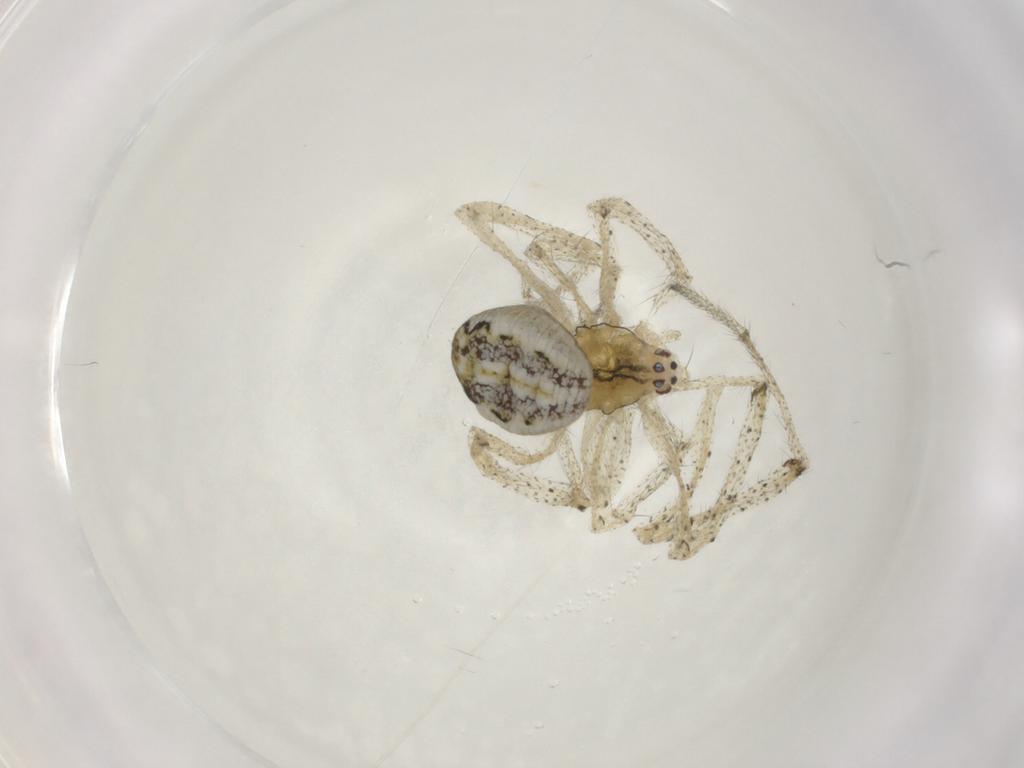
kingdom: Animalia
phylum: Arthropoda
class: Arachnida
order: Araneae
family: Theridiidae
